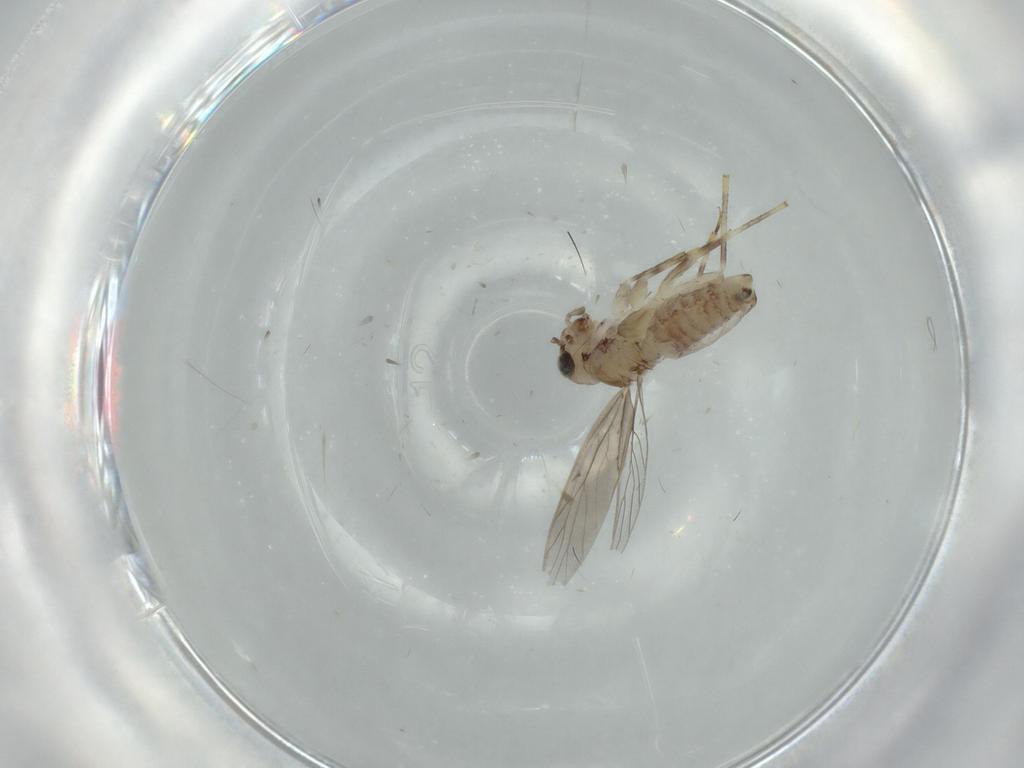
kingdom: Animalia
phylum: Arthropoda
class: Insecta
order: Psocodea
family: Lepidopsocidae
